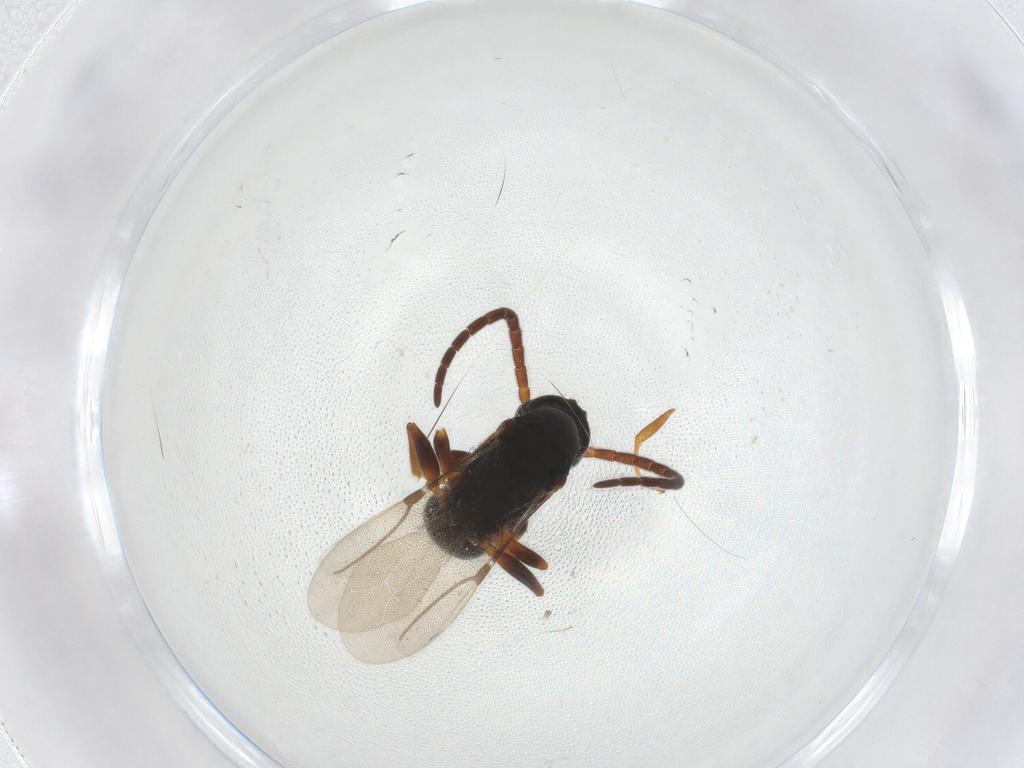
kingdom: Animalia
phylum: Arthropoda
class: Insecta
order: Hymenoptera
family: Bethylidae
